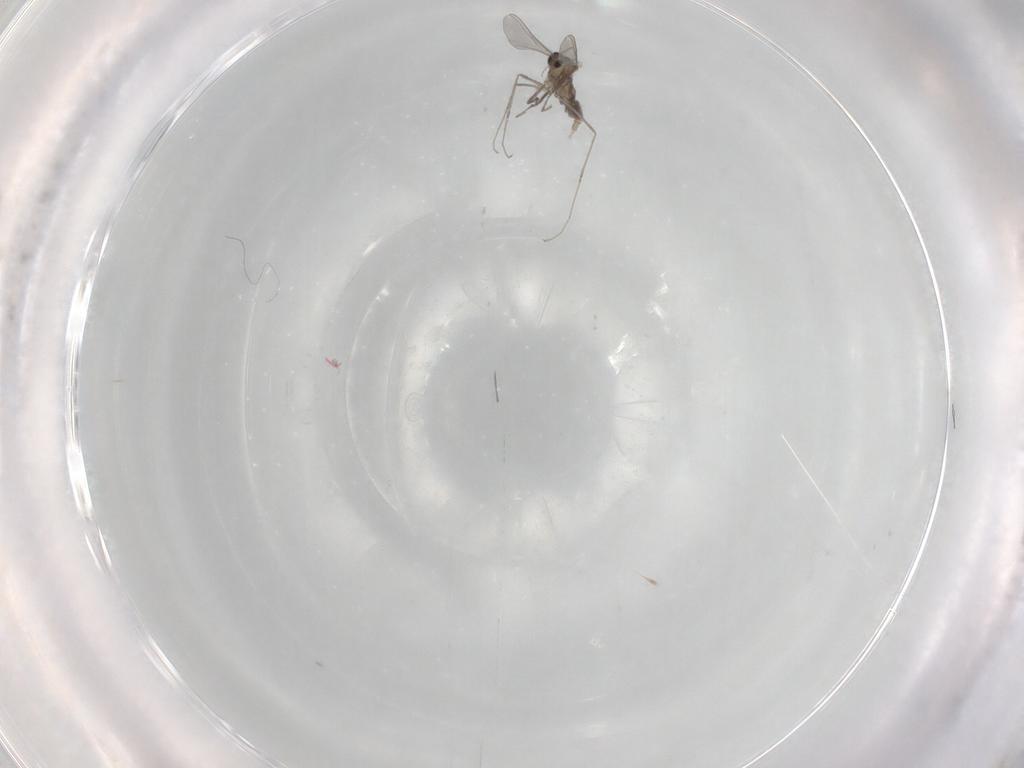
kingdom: Animalia
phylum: Arthropoda
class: Insecta
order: Diptera
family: Cecidomyiidae
